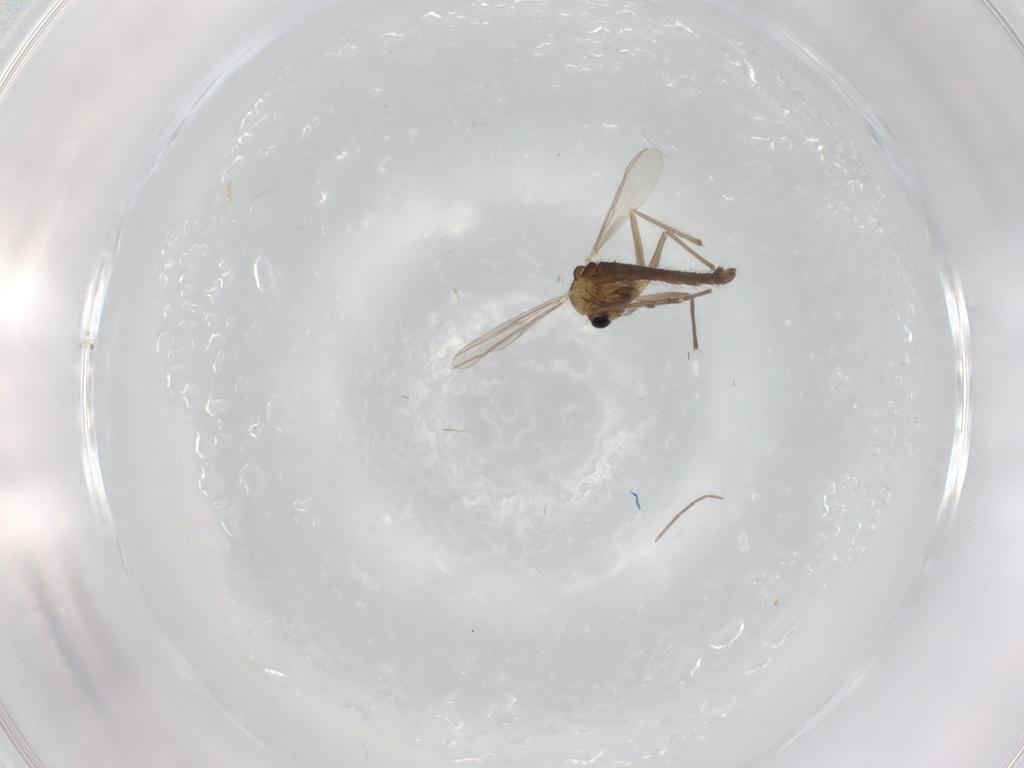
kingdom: Animalia
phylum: Arthropoda
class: Insecta
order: Diptera
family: Chironomidae
